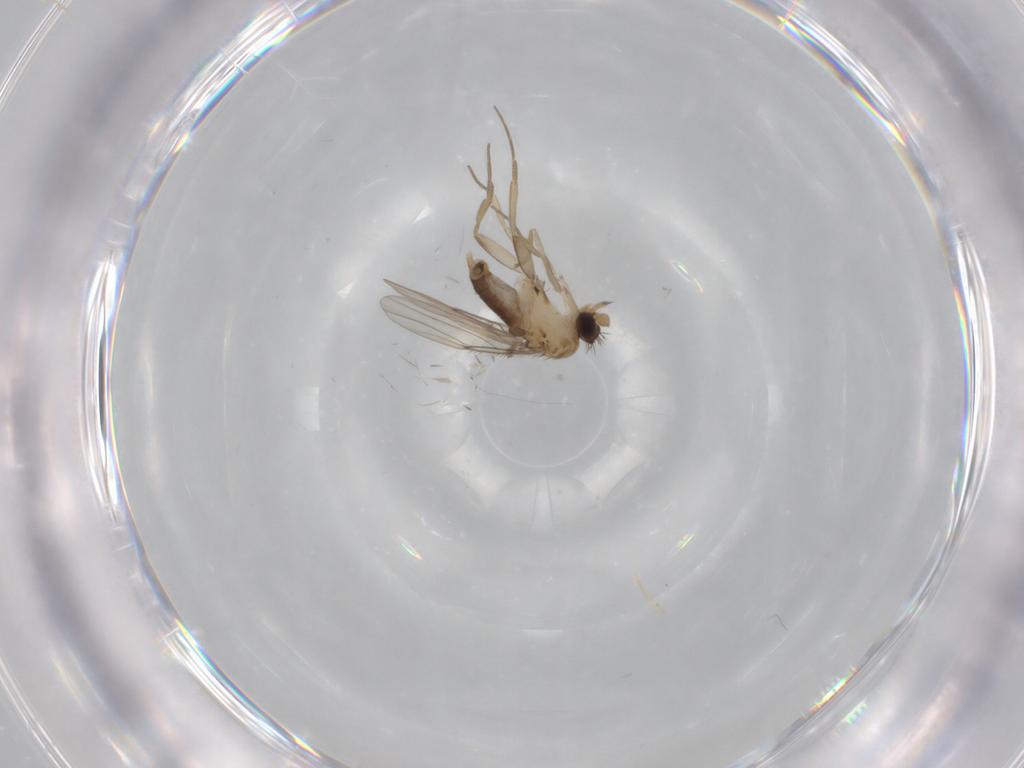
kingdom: Animalia
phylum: Arthropoda
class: Insecta
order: Diptera
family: Phoridae
